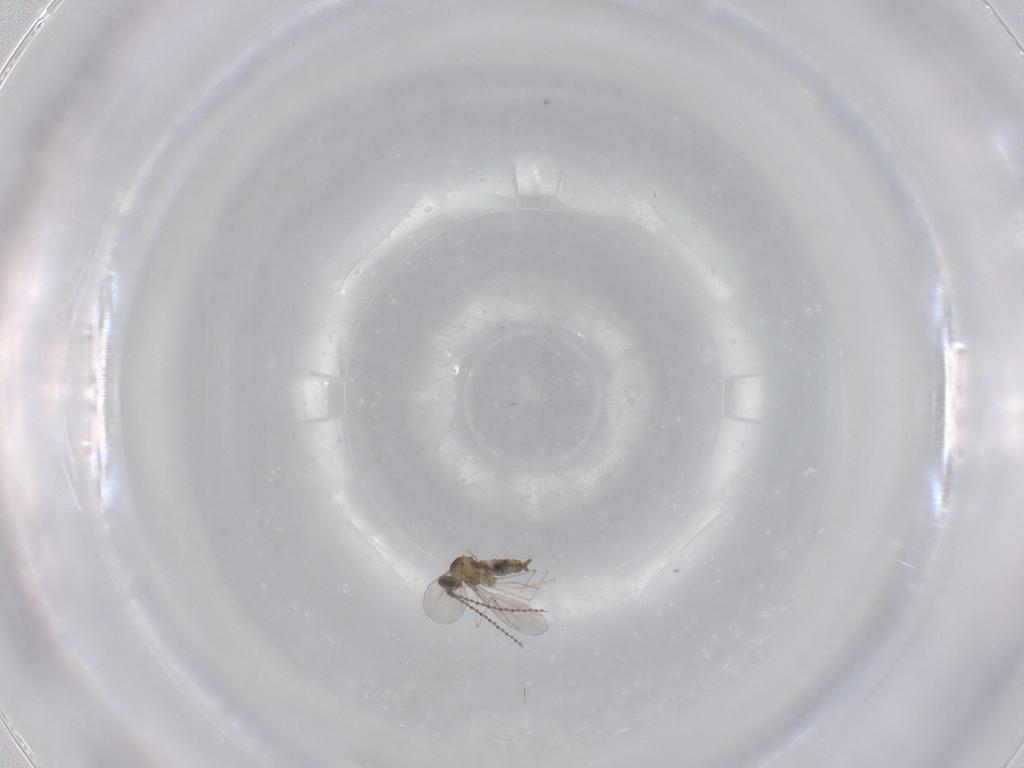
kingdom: Animalia
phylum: Arthropoda
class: Insecta
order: Diptera
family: Cecidomyiidae
